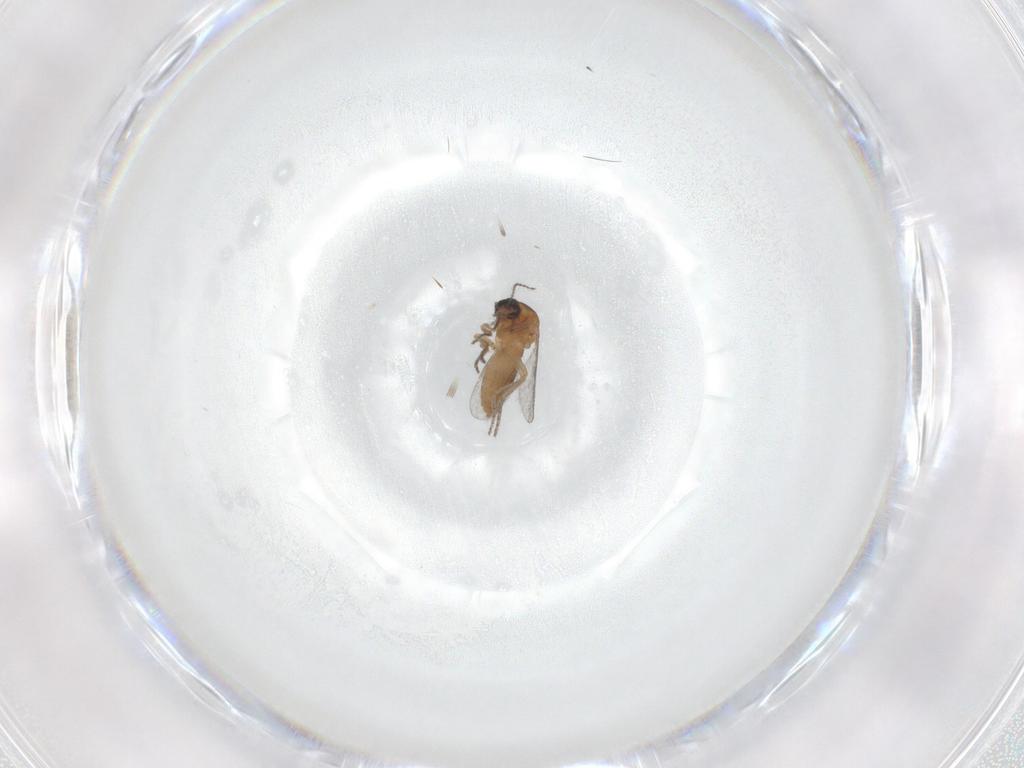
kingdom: Animalia
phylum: Arthropoda
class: Insecta
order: Diptera
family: Ceratopogonidae
